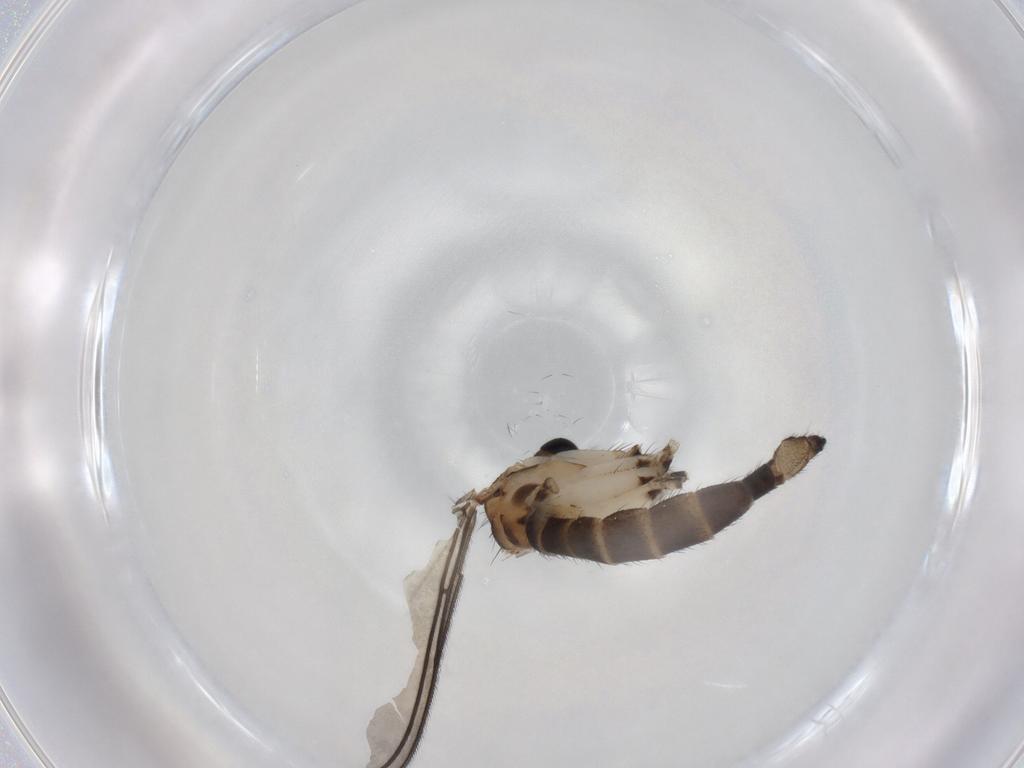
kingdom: Animalia
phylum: Arthropoda
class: Insecta
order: Diptera
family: Sciaridae
